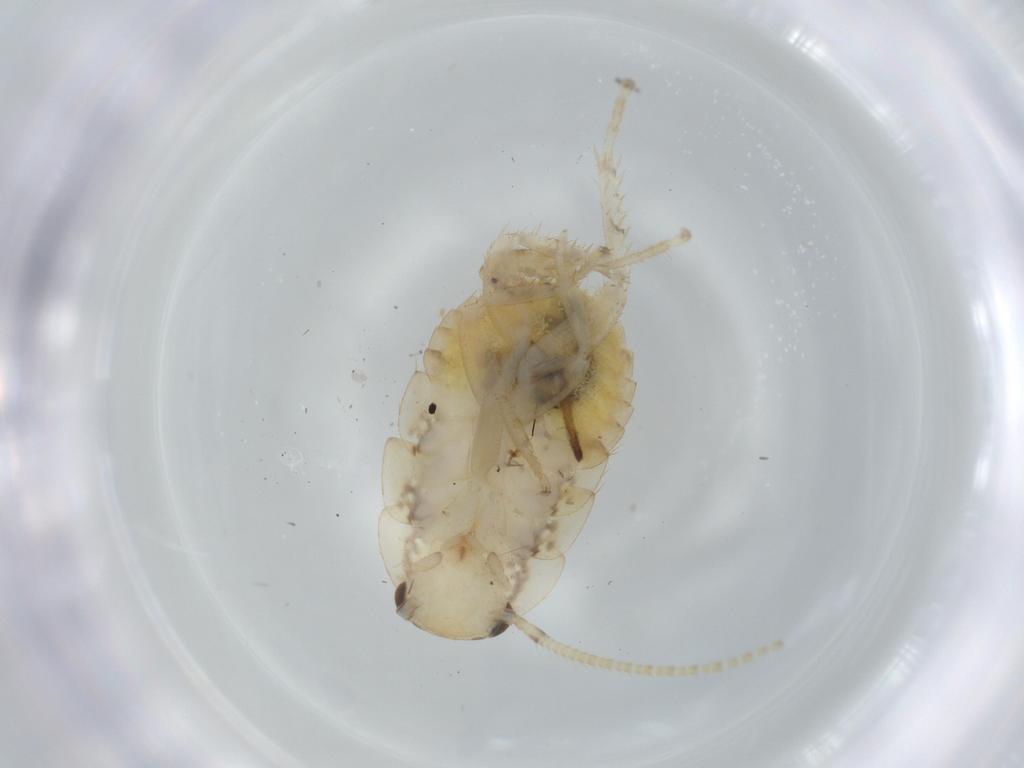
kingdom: Animalia
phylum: Arthropoda
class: Insecta
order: Blattodea
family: Ectobiidae
